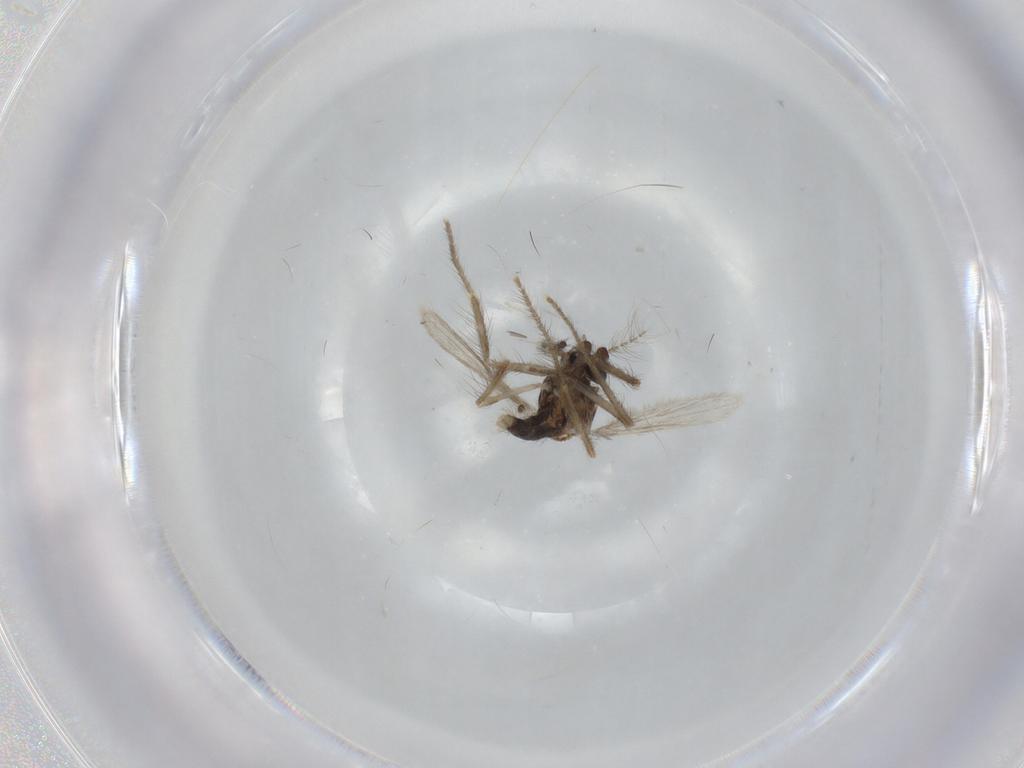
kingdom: Animalia
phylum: Arthropoda
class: Insecta
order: Diptera
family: Corethrellidae
